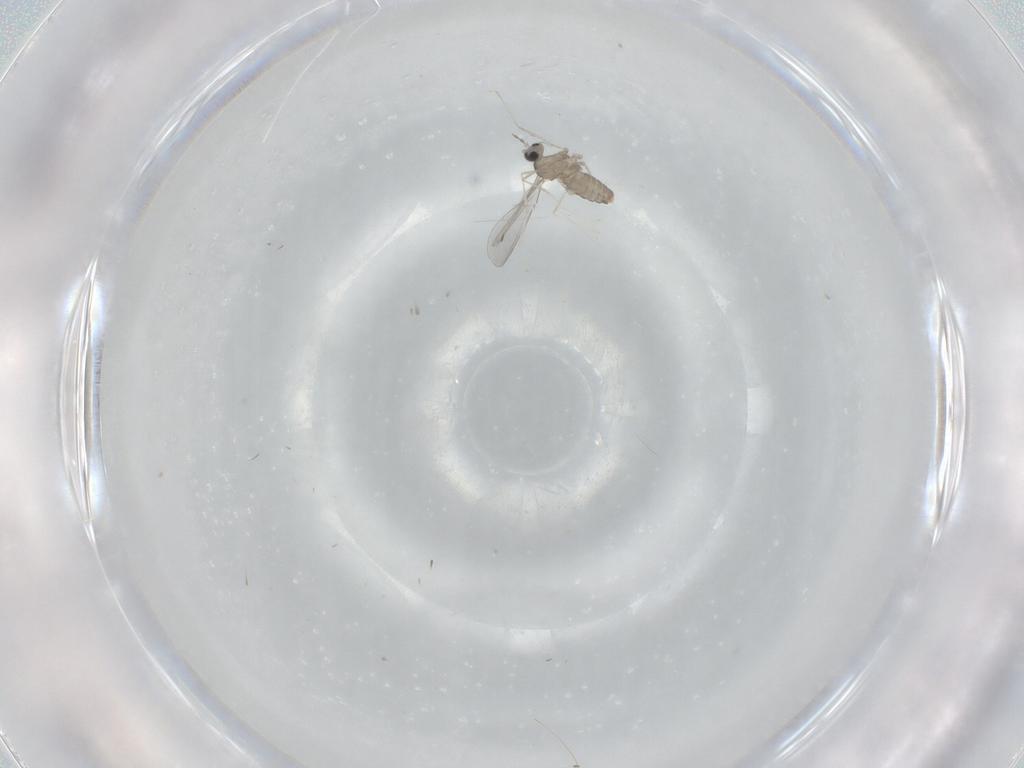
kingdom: Animalia
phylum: Arthropoda
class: Insecta
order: Diptera
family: Cecidomyiidae
